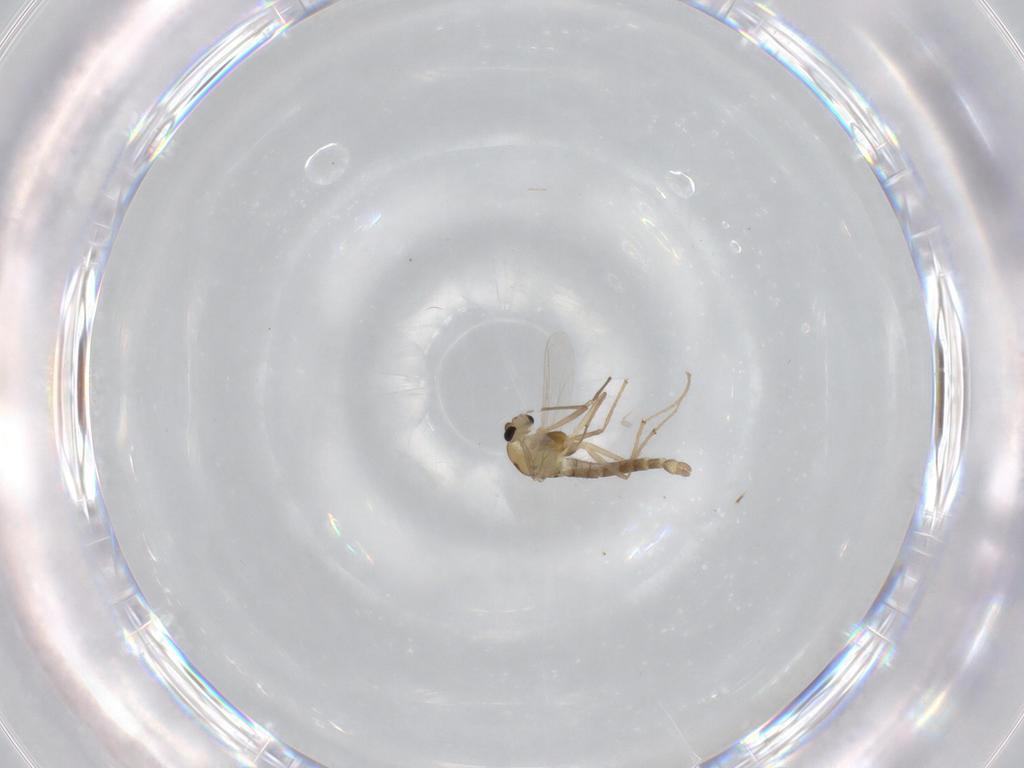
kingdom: Animalia
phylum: Arthropoda
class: Insecta
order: Diptera
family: Chironomidae
